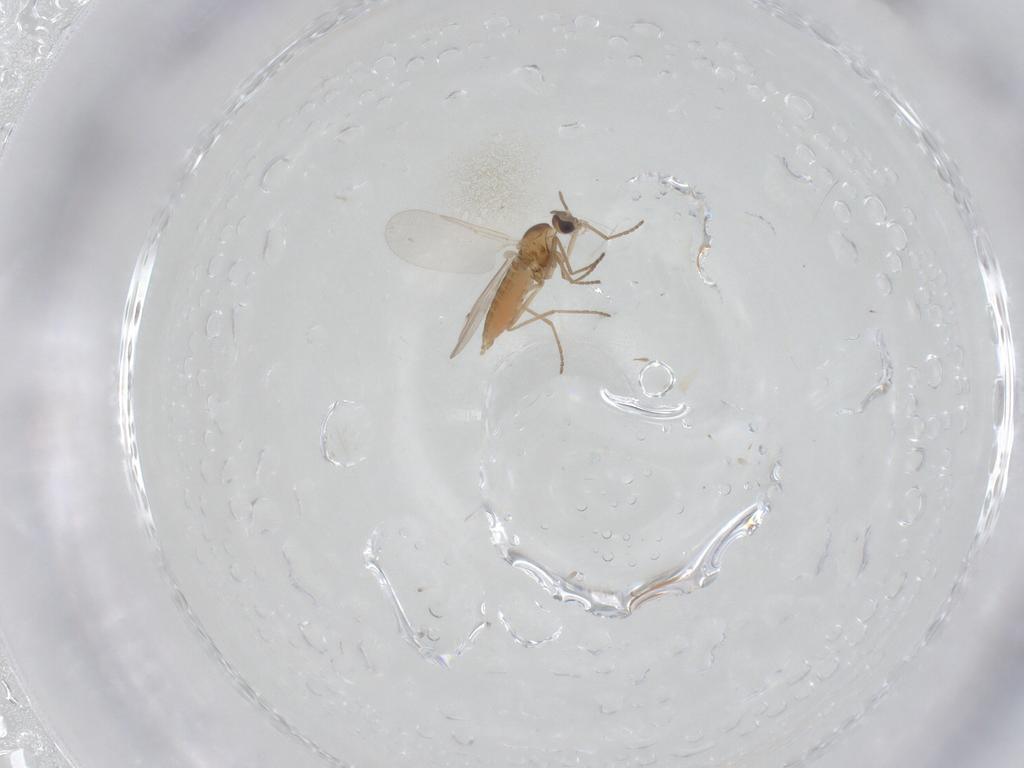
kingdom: Animalia
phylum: Arthropoda
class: Insecta
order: Diptera
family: Cecidomyiidae
